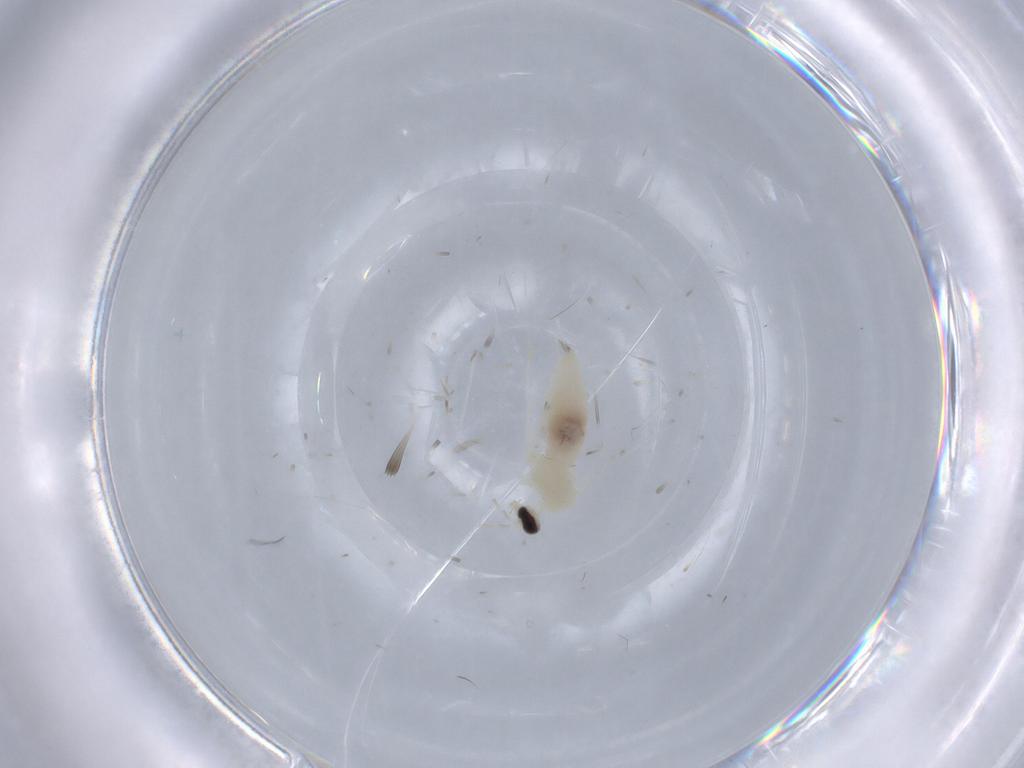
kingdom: Animalia
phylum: Arthropoda
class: Insecta
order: Diptera
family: Cecidomyiidae
